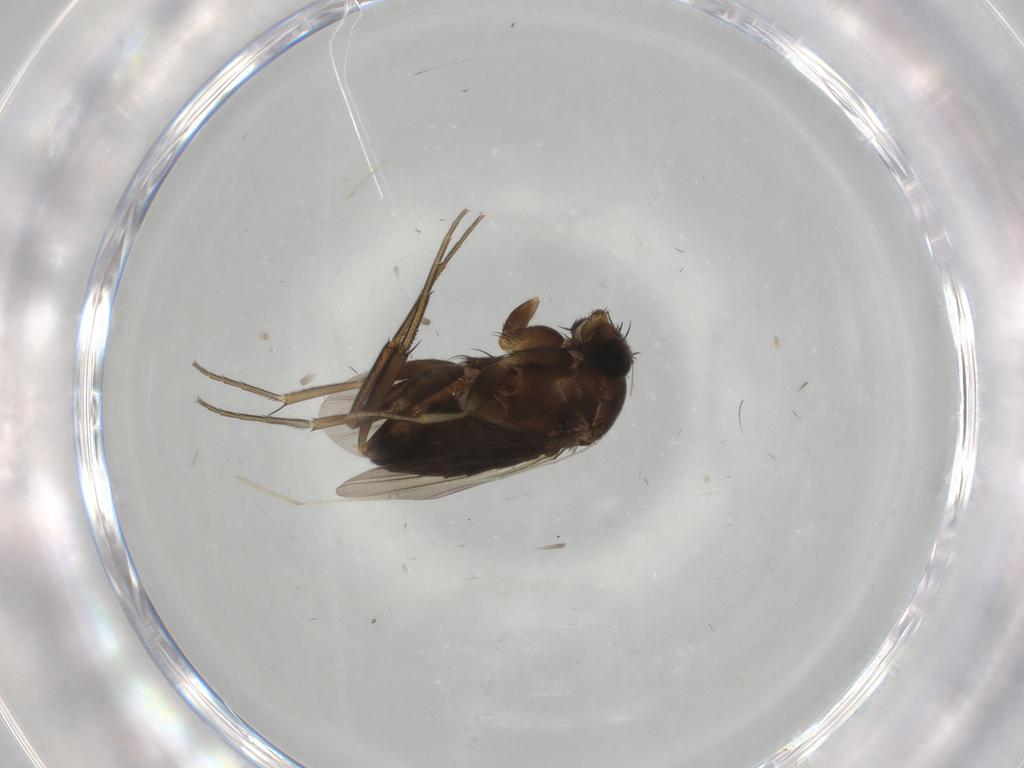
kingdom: Animalia
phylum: Arthropoda
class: Insecta
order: Diptera
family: Phoridae
